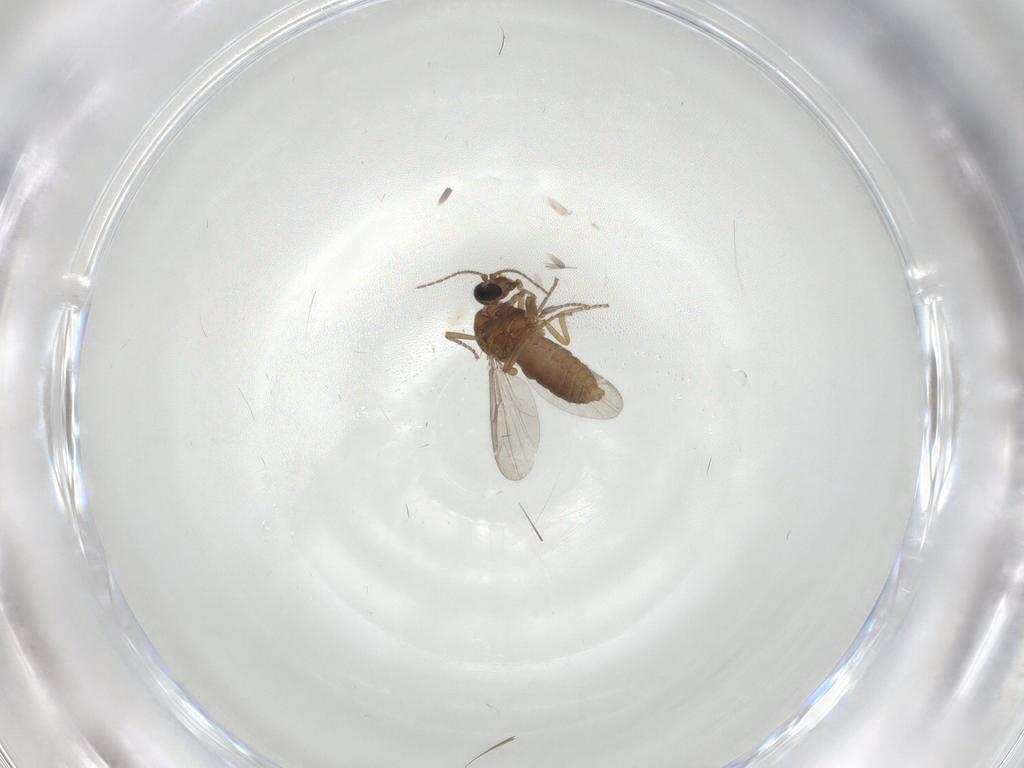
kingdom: Animalia
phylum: Arthropoda
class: Insecta
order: Diptera
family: Ceratopogonidae
